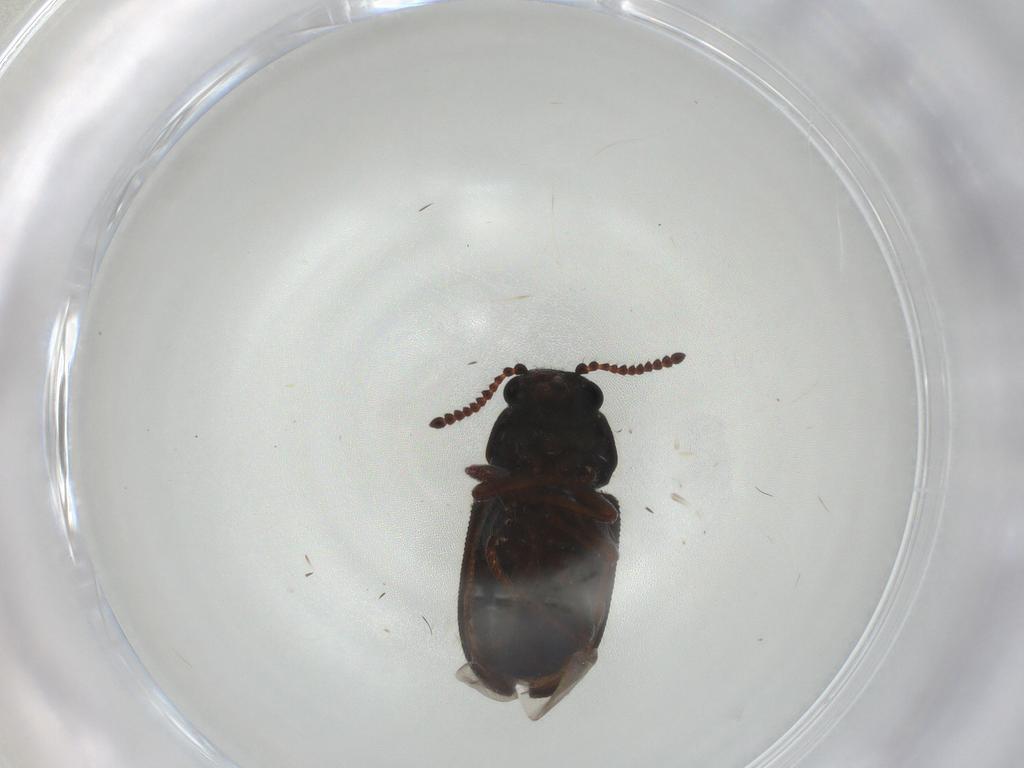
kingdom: Animalia
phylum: Arthropoda
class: Insecta
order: Coleoptera
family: Melyridae
